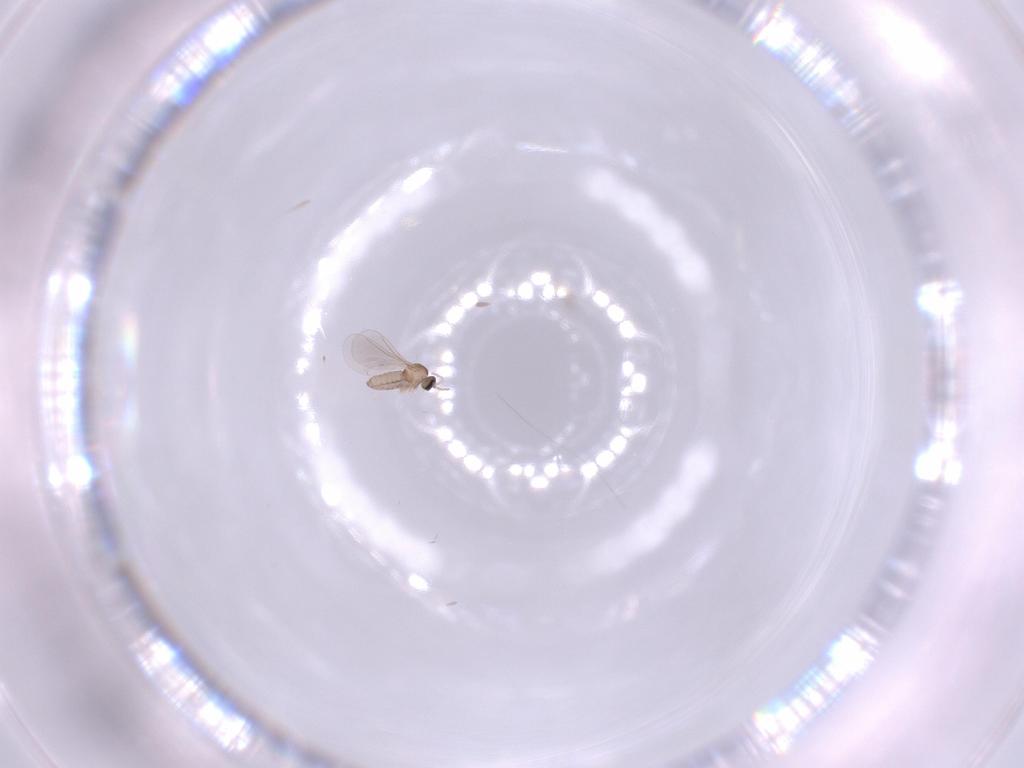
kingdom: Animalia
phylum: Arthropoda
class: Insecta
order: Diptera
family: Cecidomyiidae
